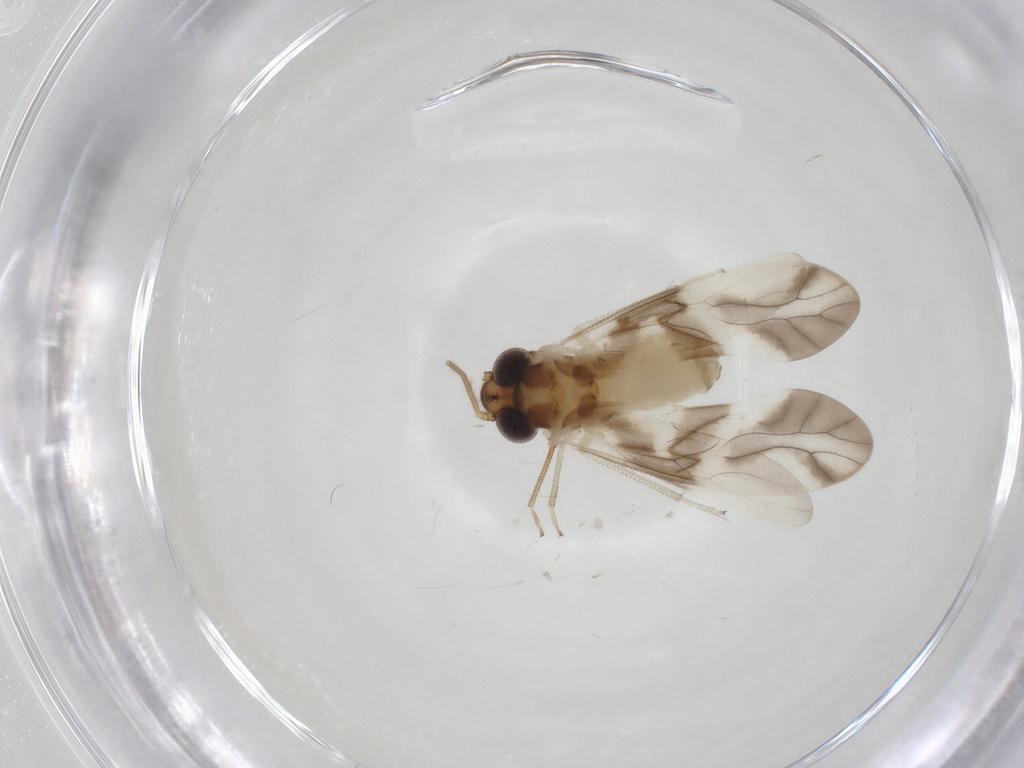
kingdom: Animalia
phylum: Arthropoda
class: Insecta
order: Psocodea
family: Caeciliusidae
